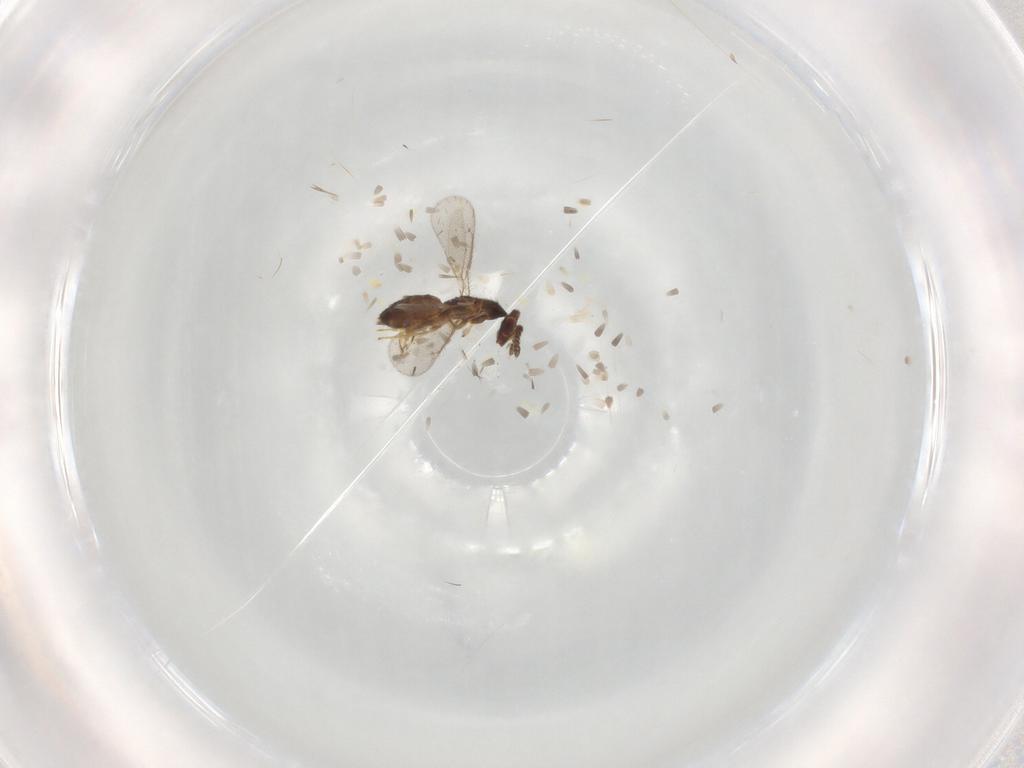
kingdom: Animalia
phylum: Arthropoda
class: Insecta
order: Hymenoptera
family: Eulophidae
